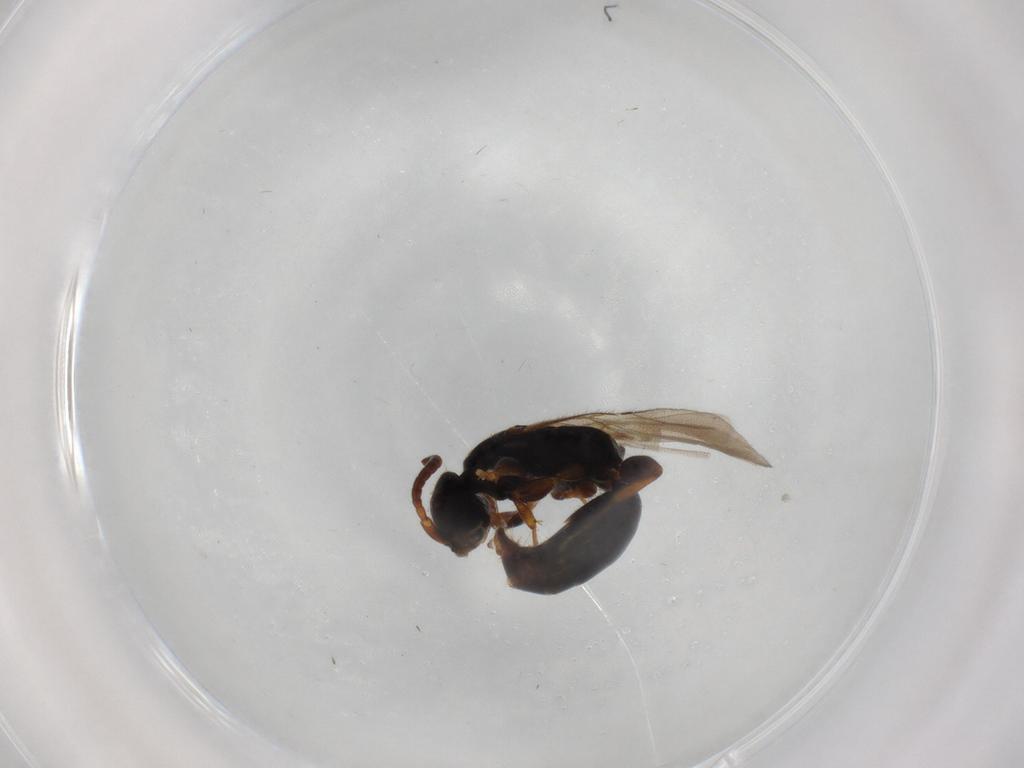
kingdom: Animalia
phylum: Arthropoda
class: Insecta
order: Hymenoptera
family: Bethylidae
